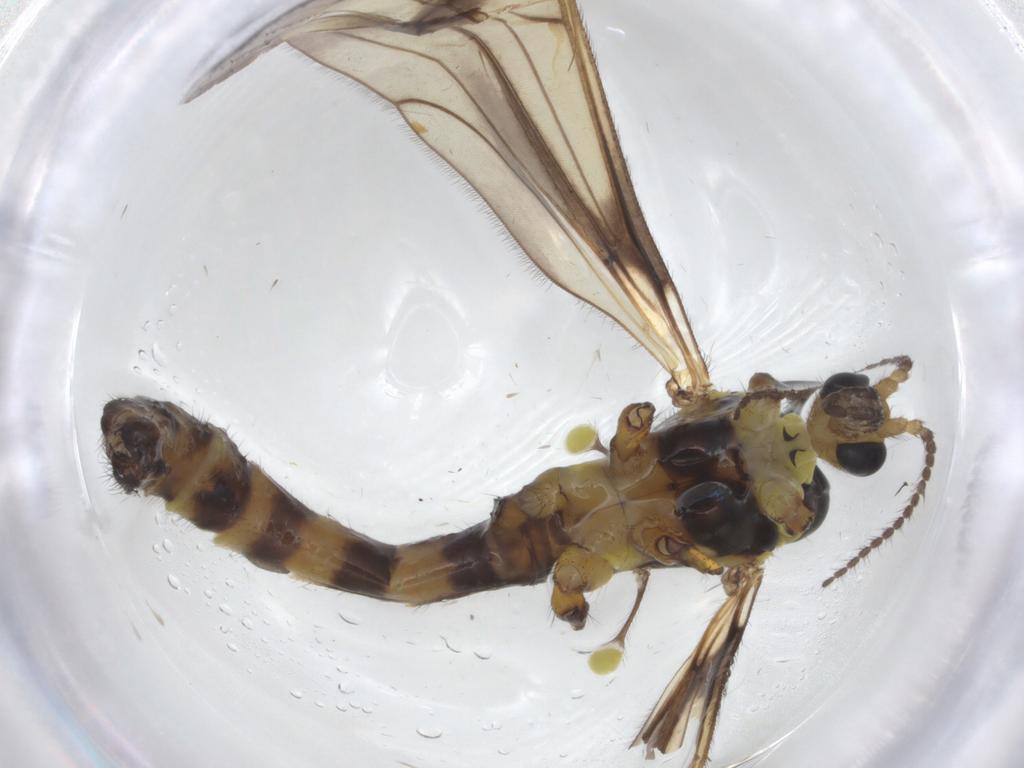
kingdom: Animalia
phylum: Arthropoda
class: Insecta
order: Diptera
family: Limoniidae
